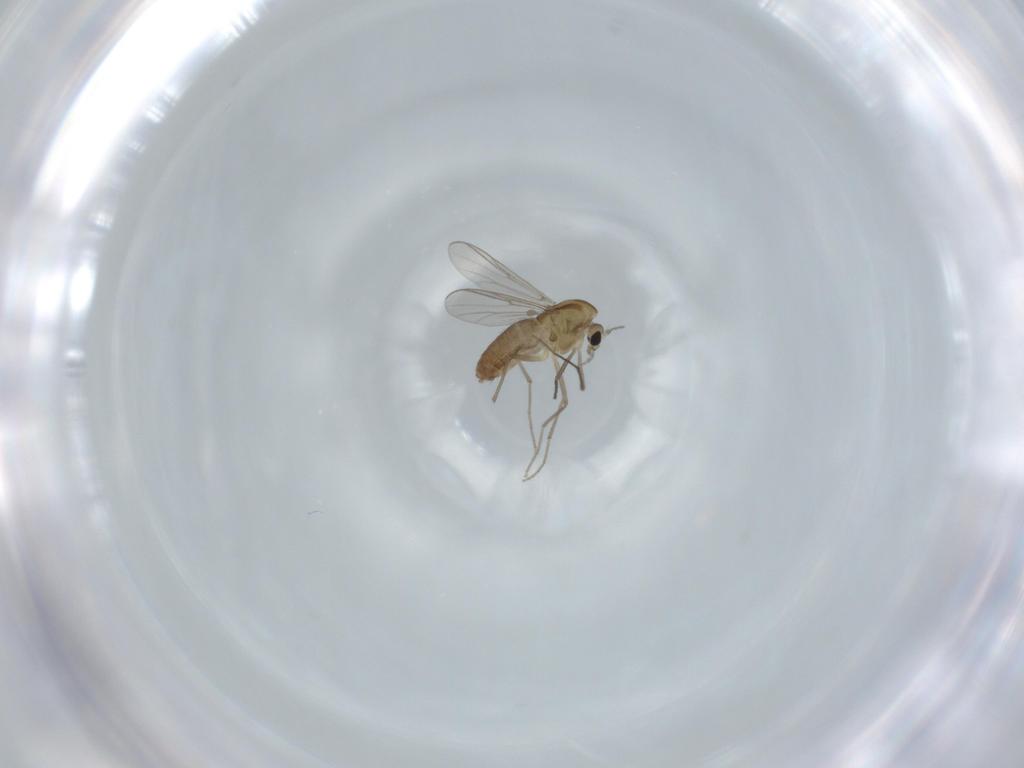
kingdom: Animalia
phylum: Arthropoda
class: Insecta
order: Diptera
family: Chironomidae
